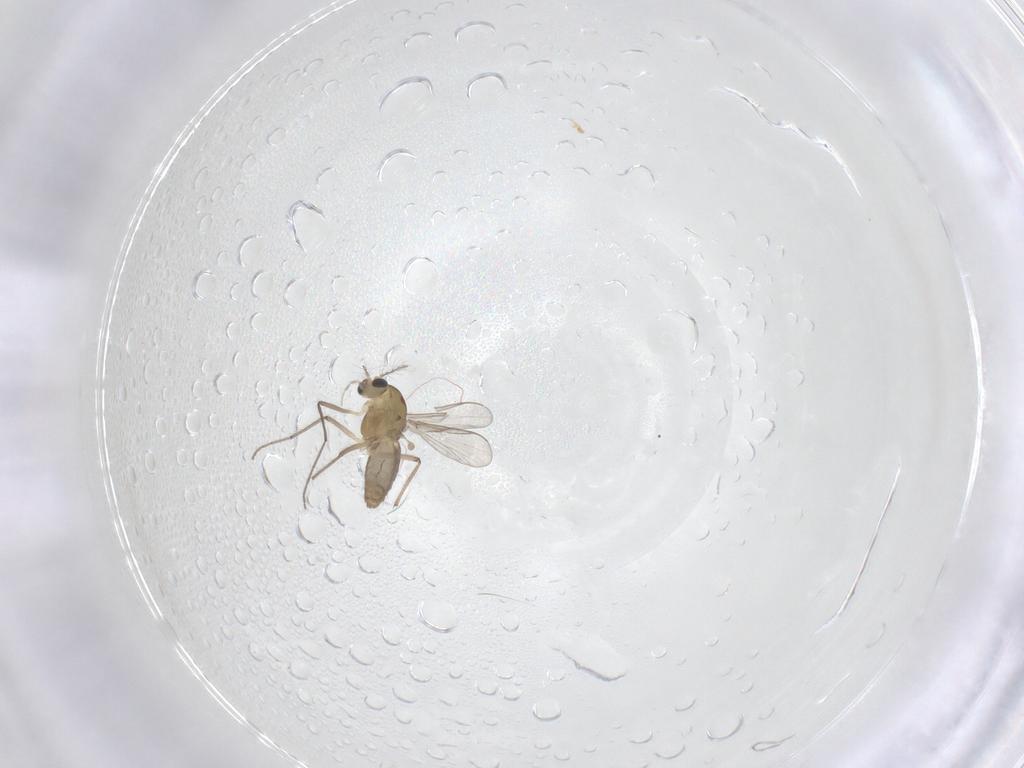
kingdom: Animalia
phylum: Arthropoda
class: Insecta
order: Diptera
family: Chironomidae
